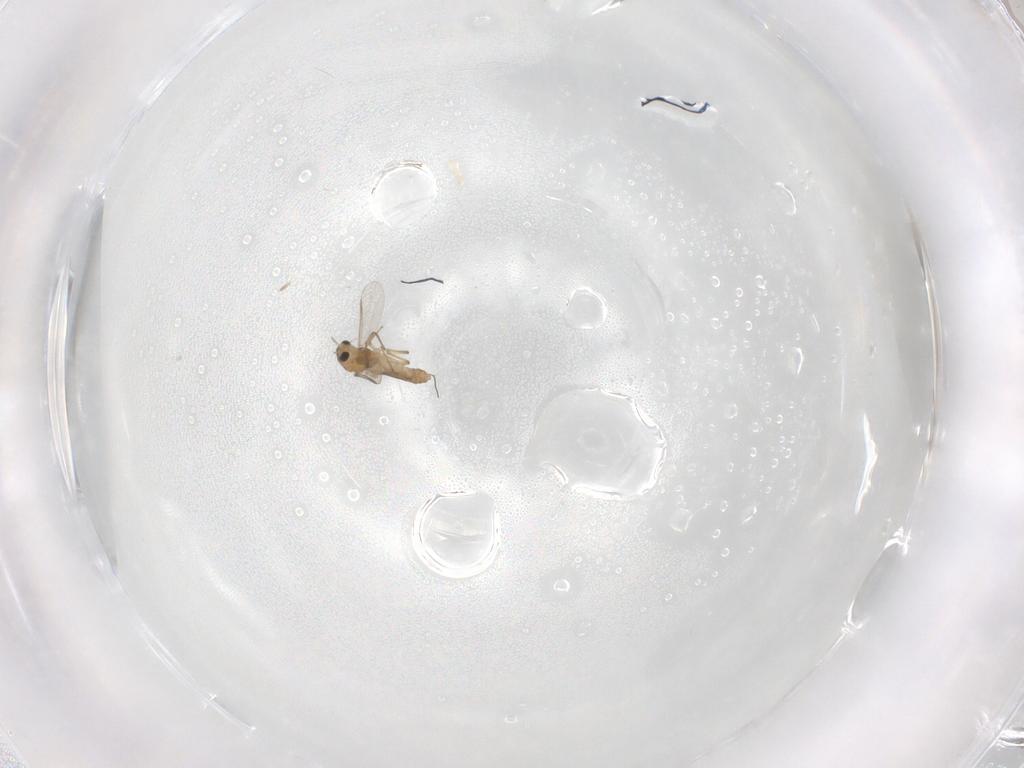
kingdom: Animalia
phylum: Arthropoda
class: Insecta
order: Diptera
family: Chironomidae
